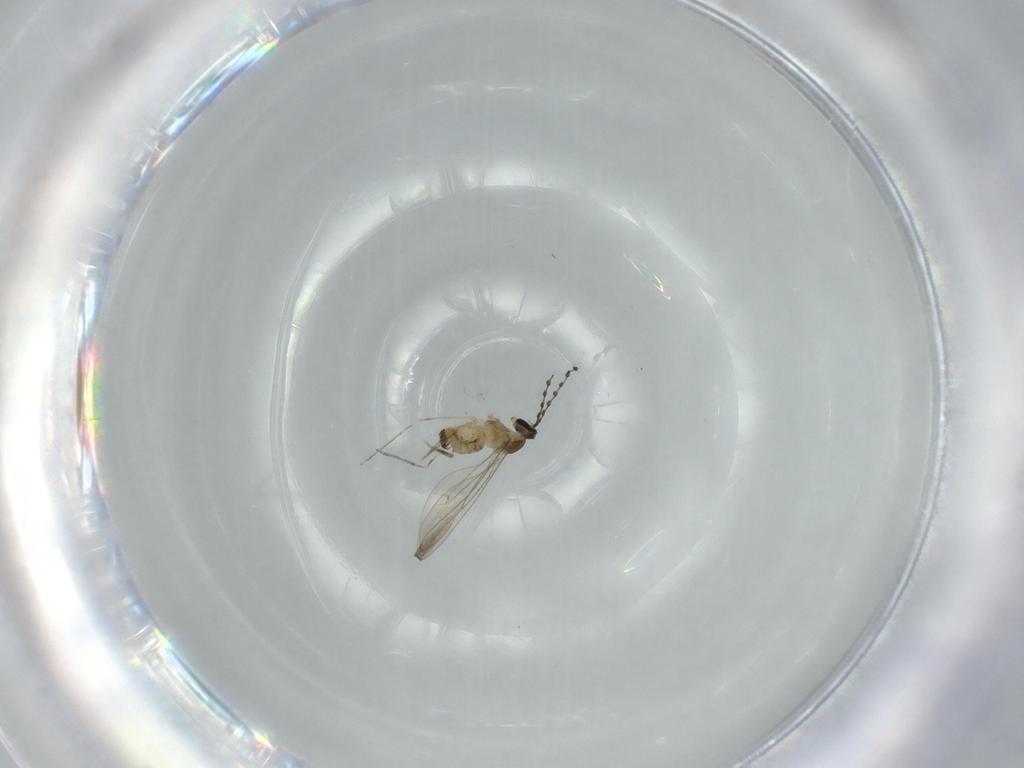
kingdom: Animalia
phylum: Arthropoda
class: Insecta
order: Diptera
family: Cecidomyiidae
